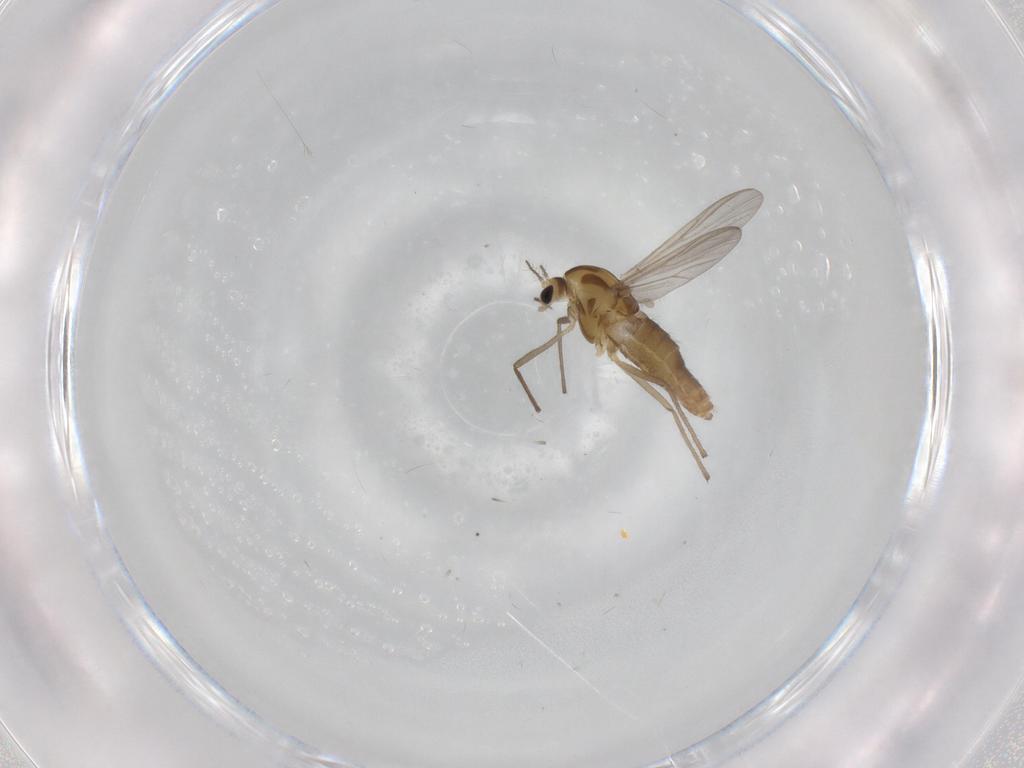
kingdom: Animalia
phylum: Arthropoda
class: Insecta
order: Diptera
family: Chironomidae
